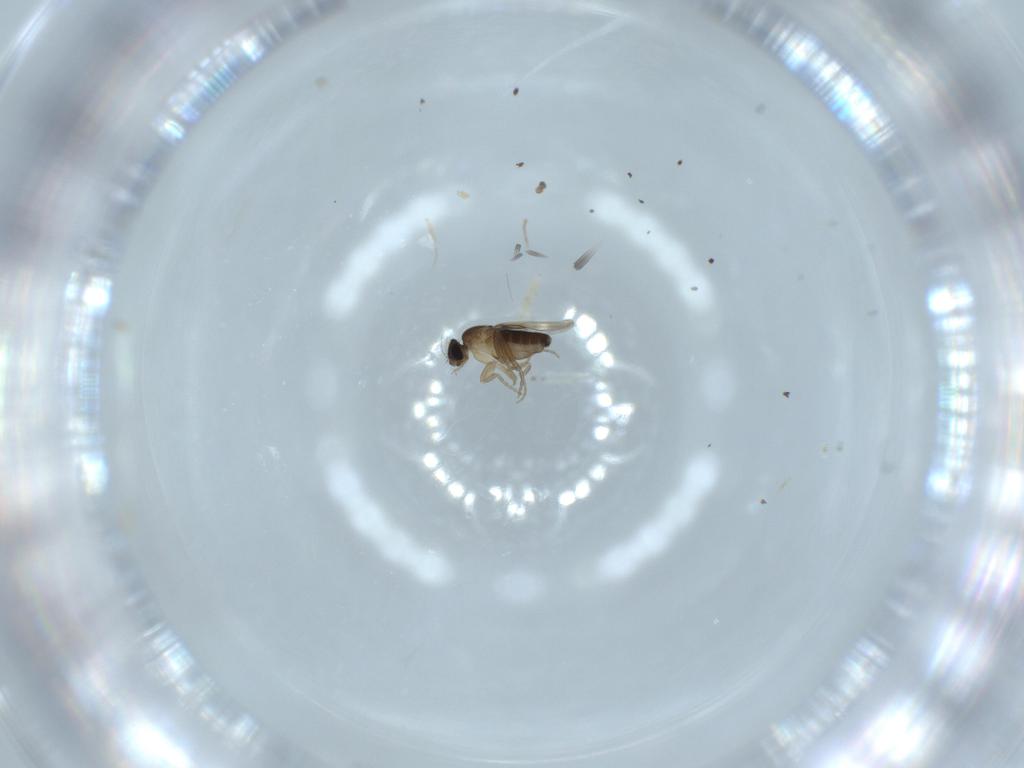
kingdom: Animalia
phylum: Arthropoda
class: Insecta
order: Diptera
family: Phoridae
